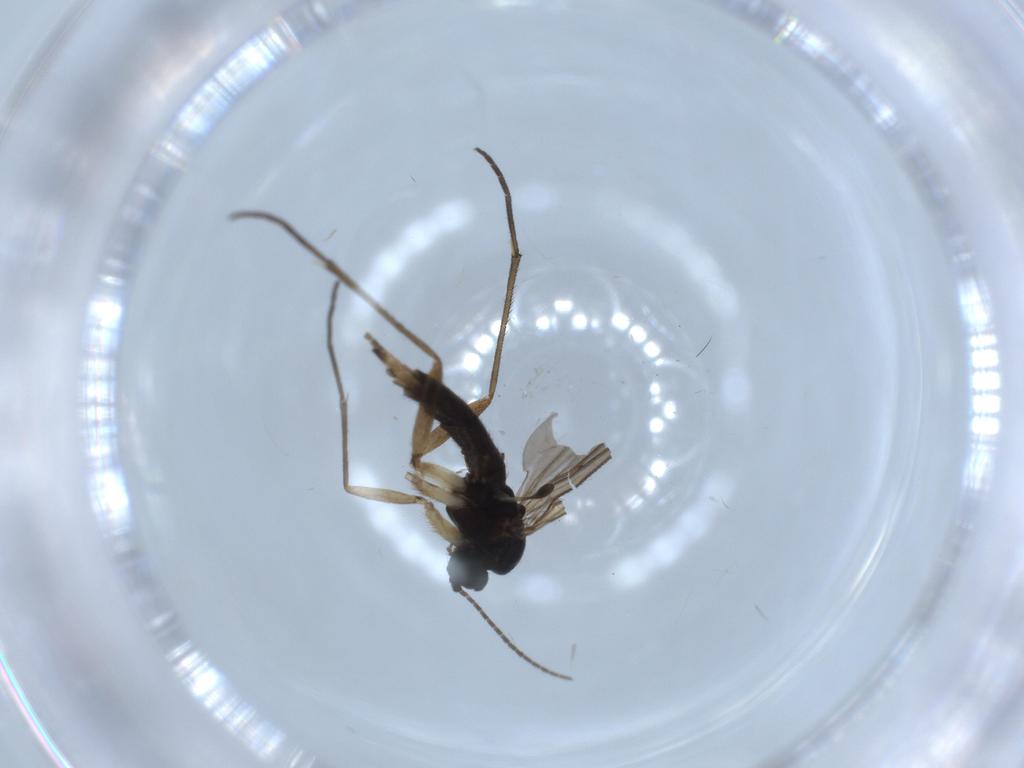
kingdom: Animalia
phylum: Arthropoda
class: Insecta
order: Diptera
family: Sciaridae
